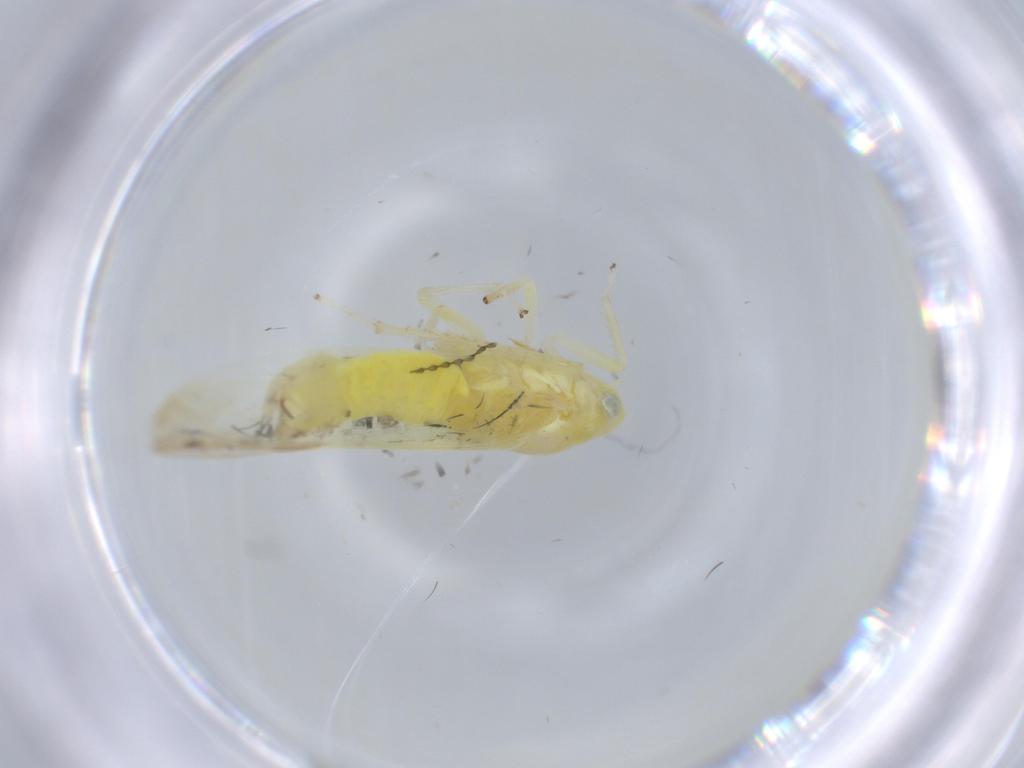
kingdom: Animalia
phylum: Arthropoda
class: Insecta
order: Hemiptera
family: Cicadellidae
